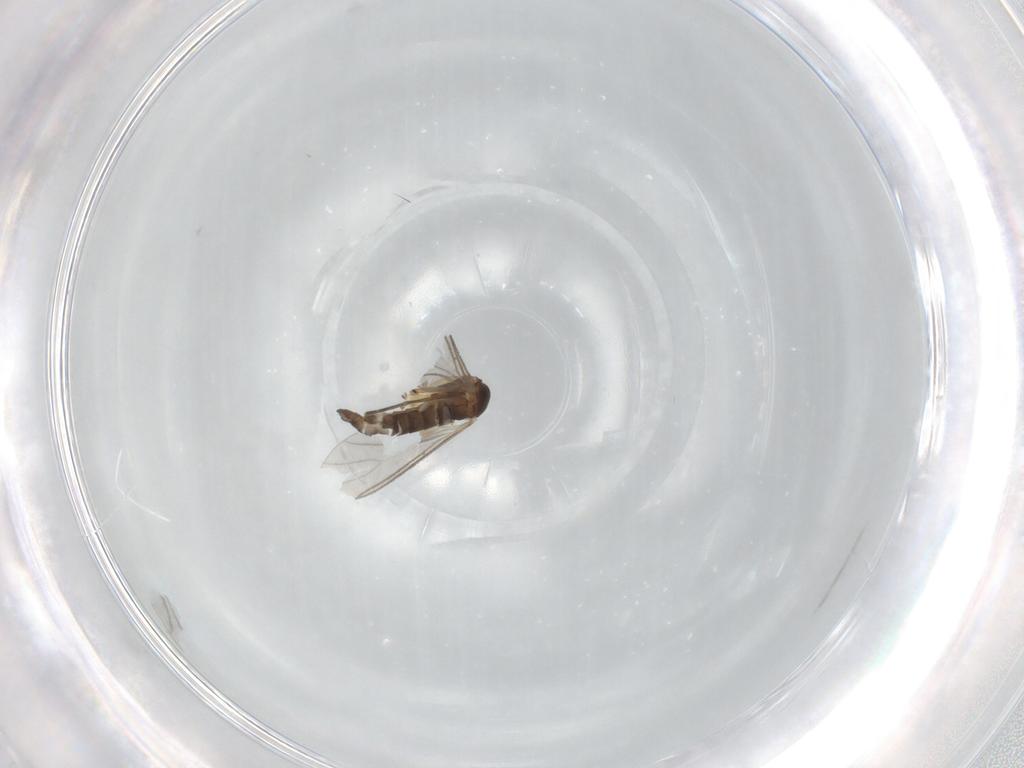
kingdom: Animalia
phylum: Arthropoda
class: Insecta
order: Diptera
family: Sciaridae
